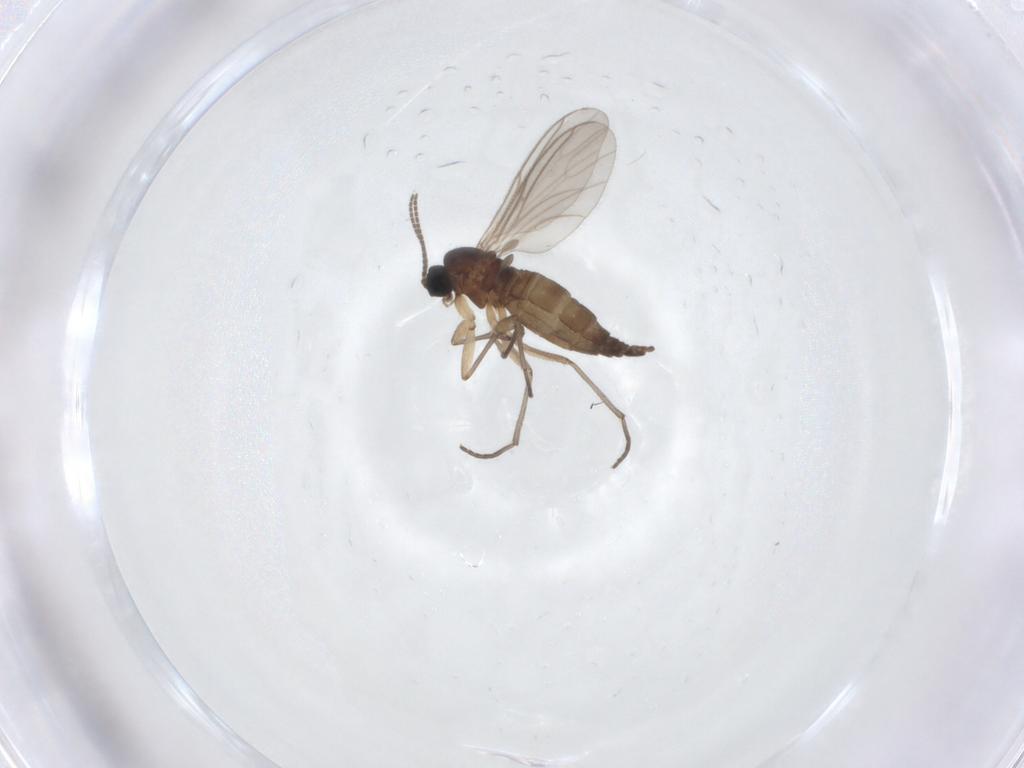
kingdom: Animalia
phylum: Arthropoda
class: Insecta
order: Diptera
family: Sciaridae
